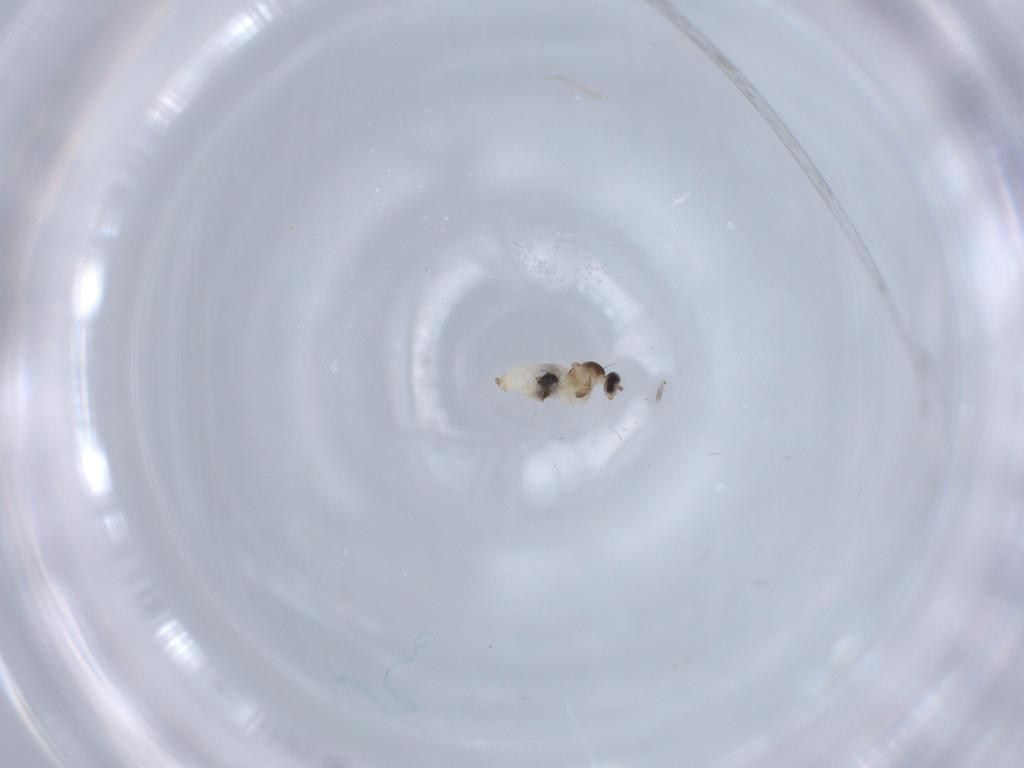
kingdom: Animalia
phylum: Arthropoda
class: Insecta
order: Diptera
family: Cecidomyiidae
